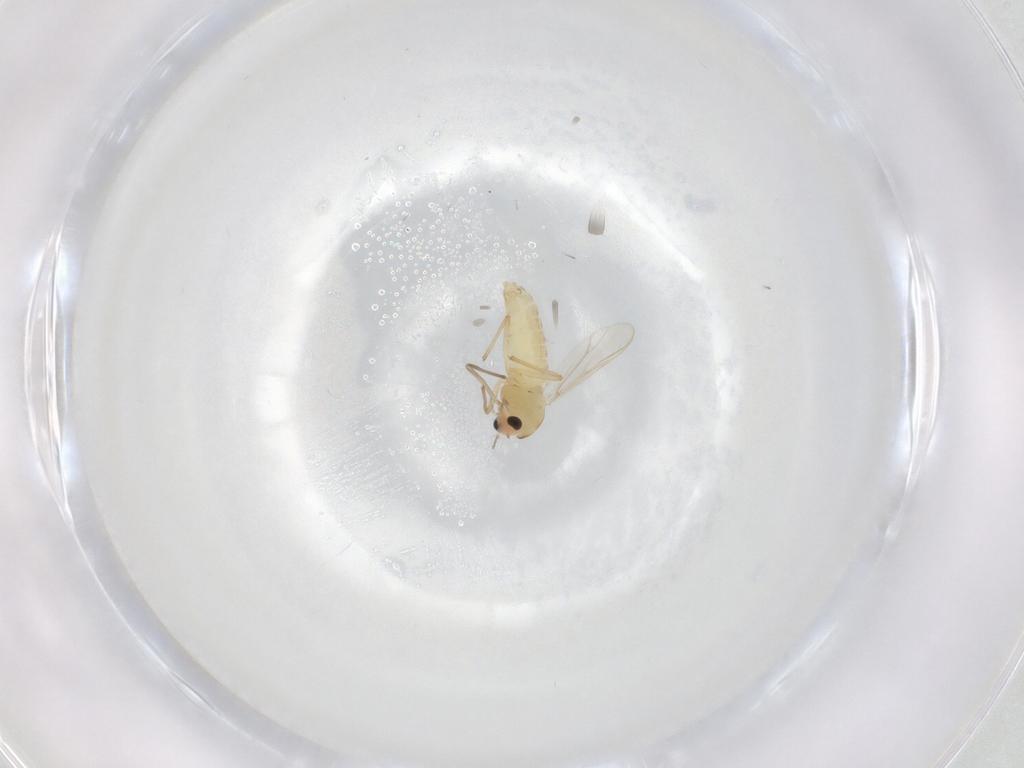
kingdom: Animalia
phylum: Arthropoda
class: Insecta
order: Diptera
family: Chironomidae
